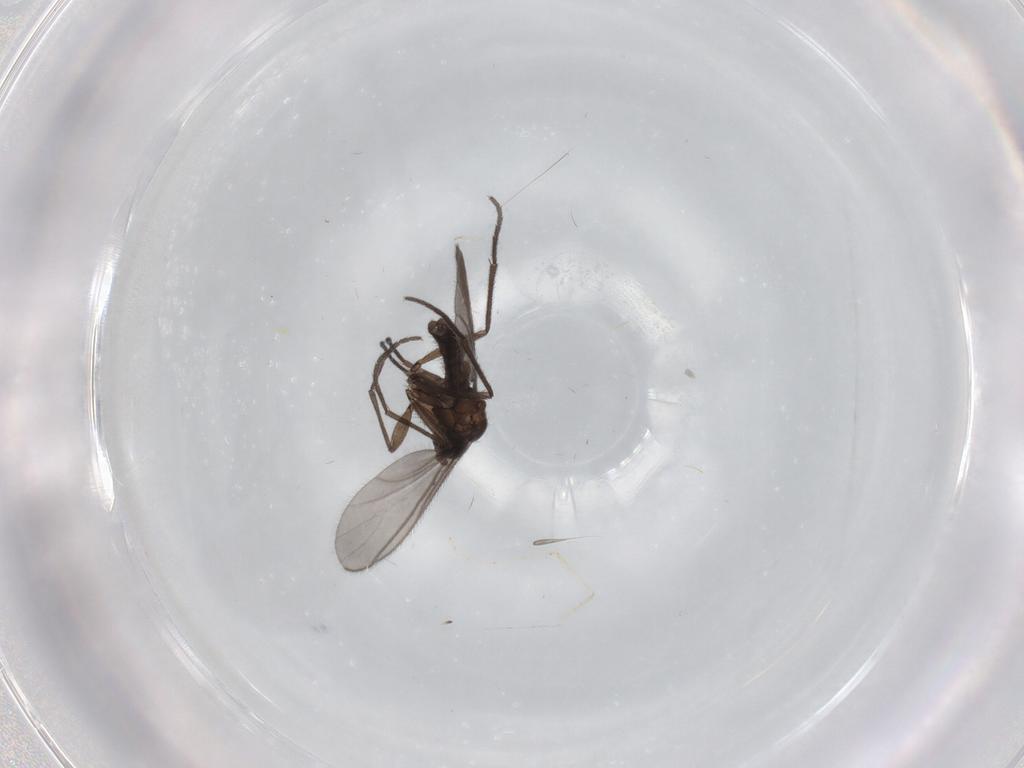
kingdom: Animalia
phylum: Arthropoda
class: Insecta
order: Diptera
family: Sciaridae
